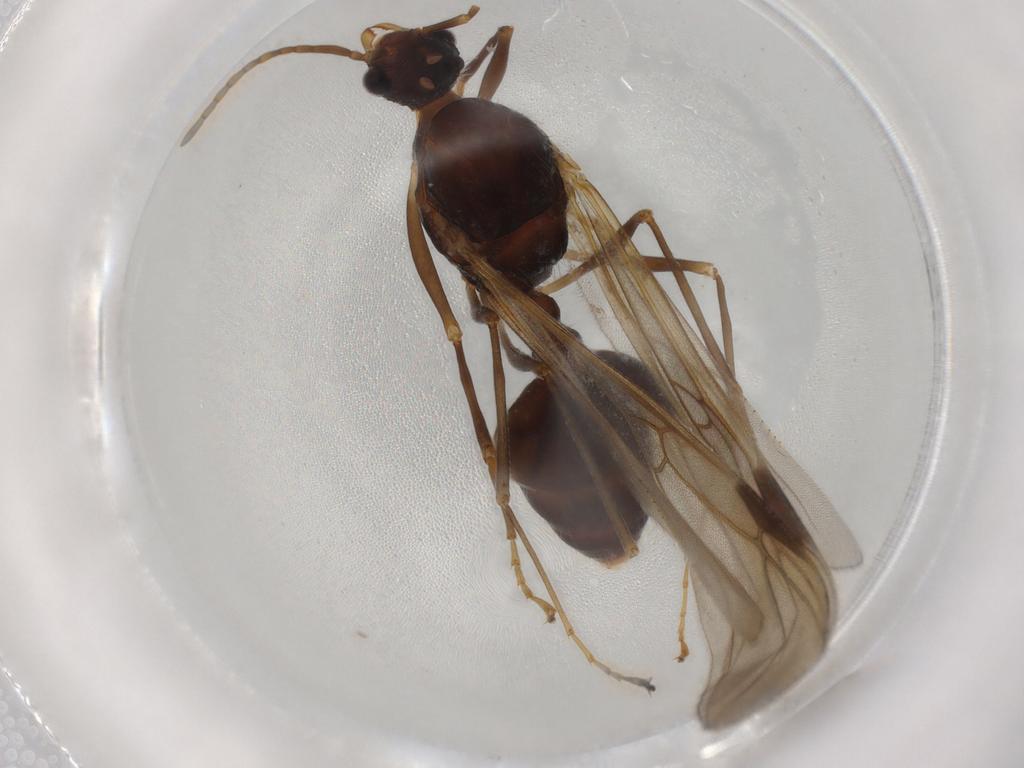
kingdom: Animalia
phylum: Arthropoda
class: Insecta
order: Hymenoptera
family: Formicidae
